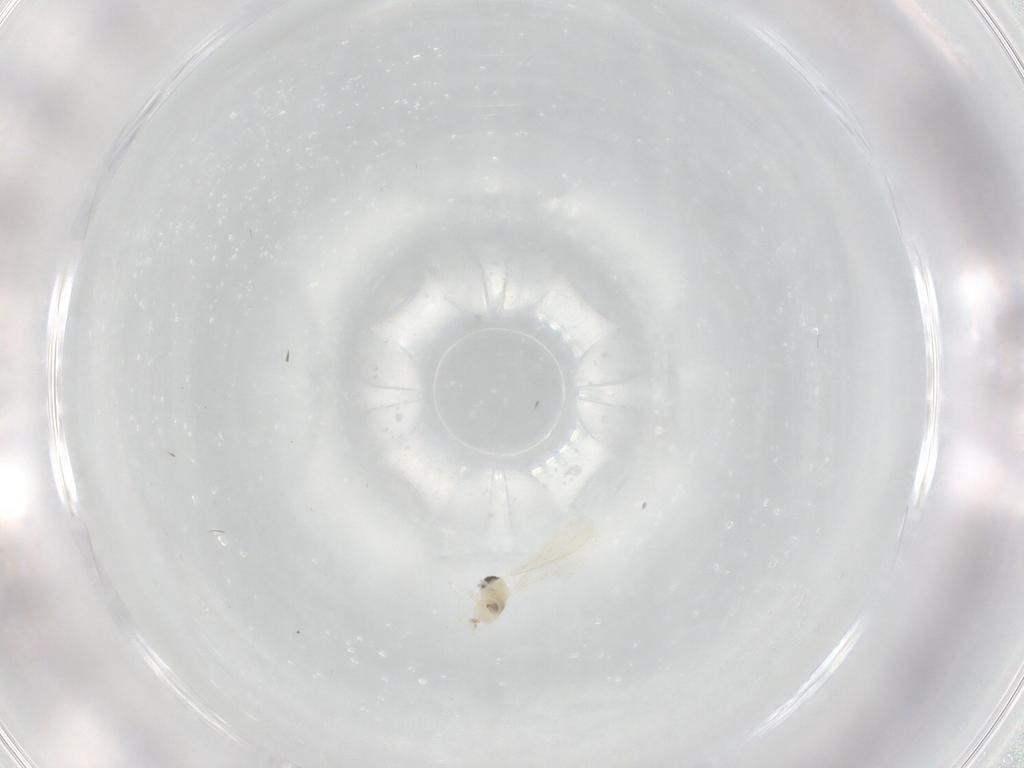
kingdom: Animalia
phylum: Arthropoda
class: Insecta
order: Diptera
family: Cecidomyiidae
